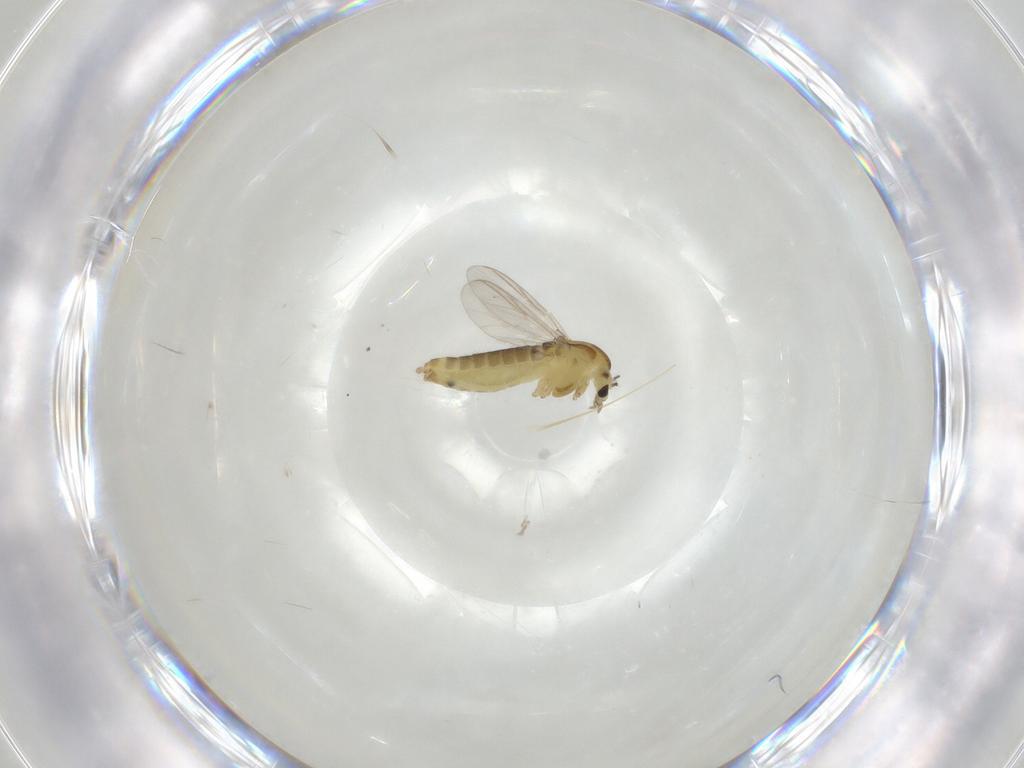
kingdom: Animalia
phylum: Arthropoda
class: Insecta
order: Diptera
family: Chironomidae
